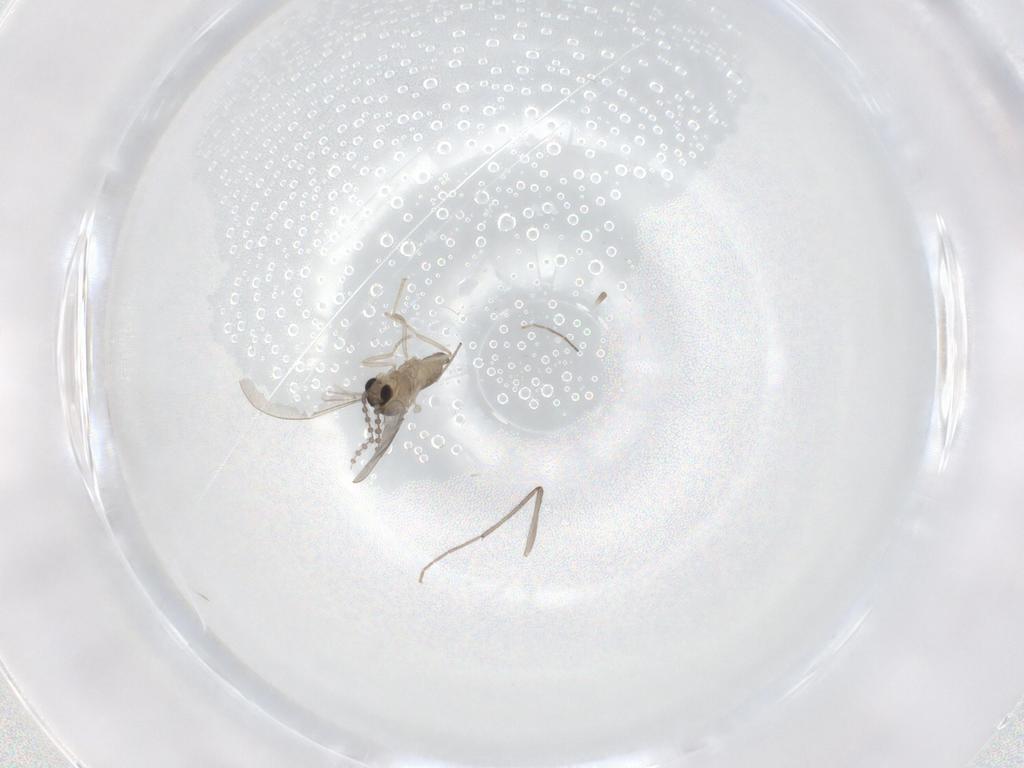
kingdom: Animalia
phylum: Arthropoda
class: Insecta
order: Diptera
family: Cecidomyiidae
